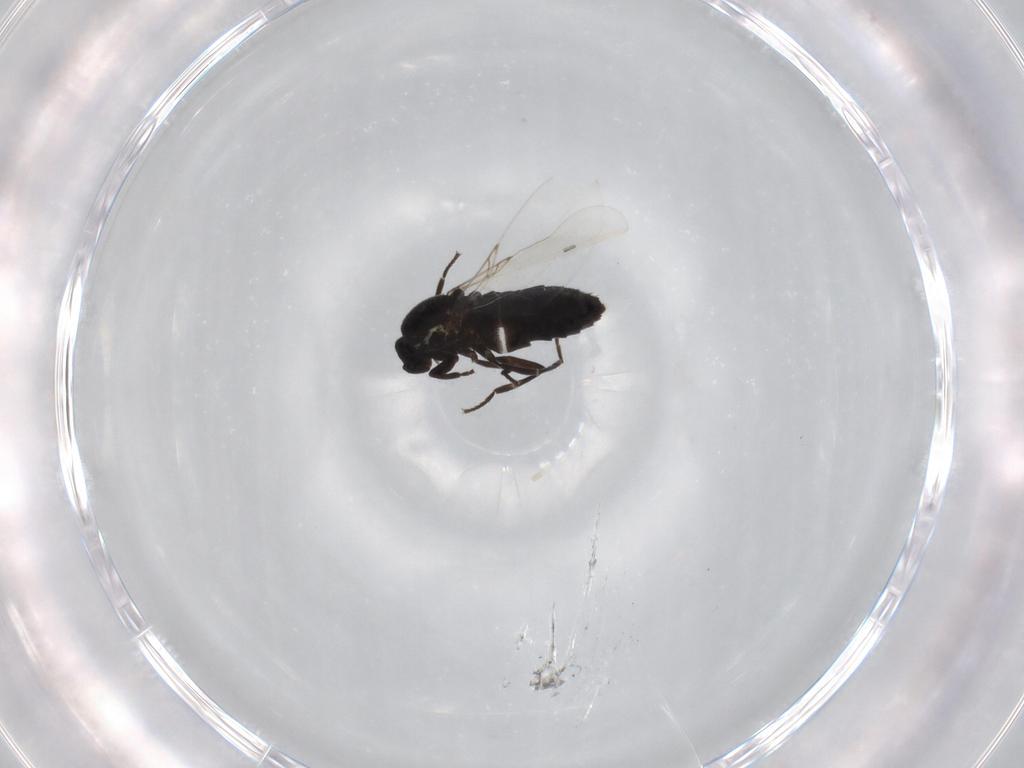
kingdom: Animalia
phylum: Arthropoda
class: Insecta
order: Diptera
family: Scatopsidae
